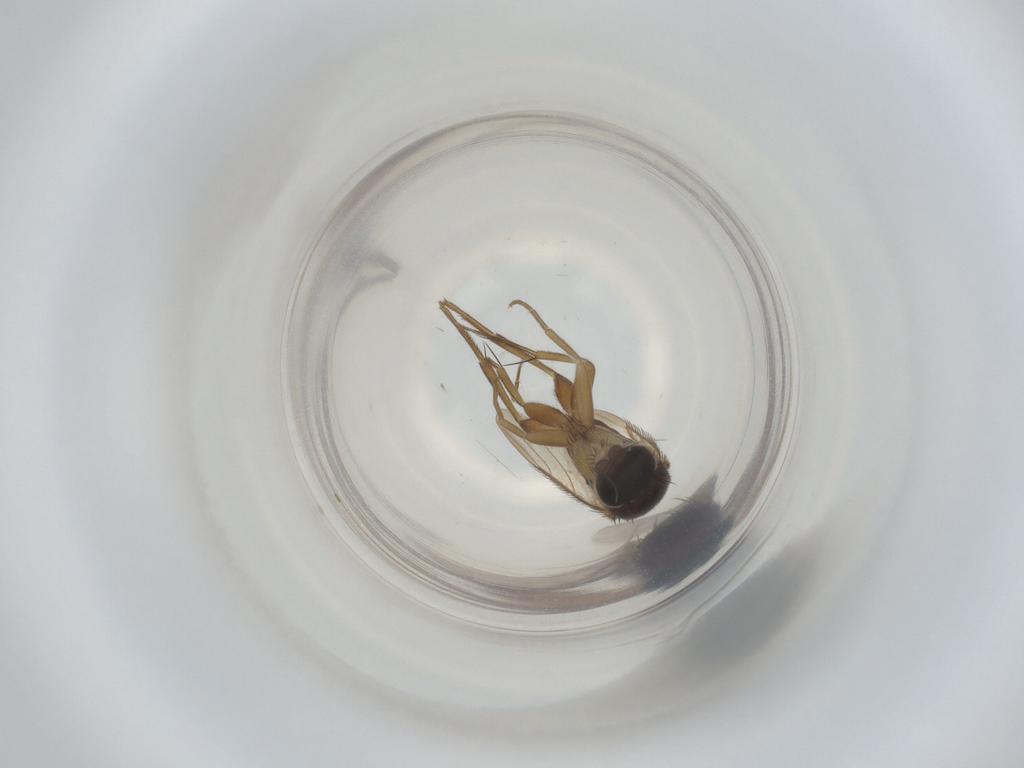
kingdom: Animalia
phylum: Arthropoda
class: Insecta
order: Diptera
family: Phoridae
